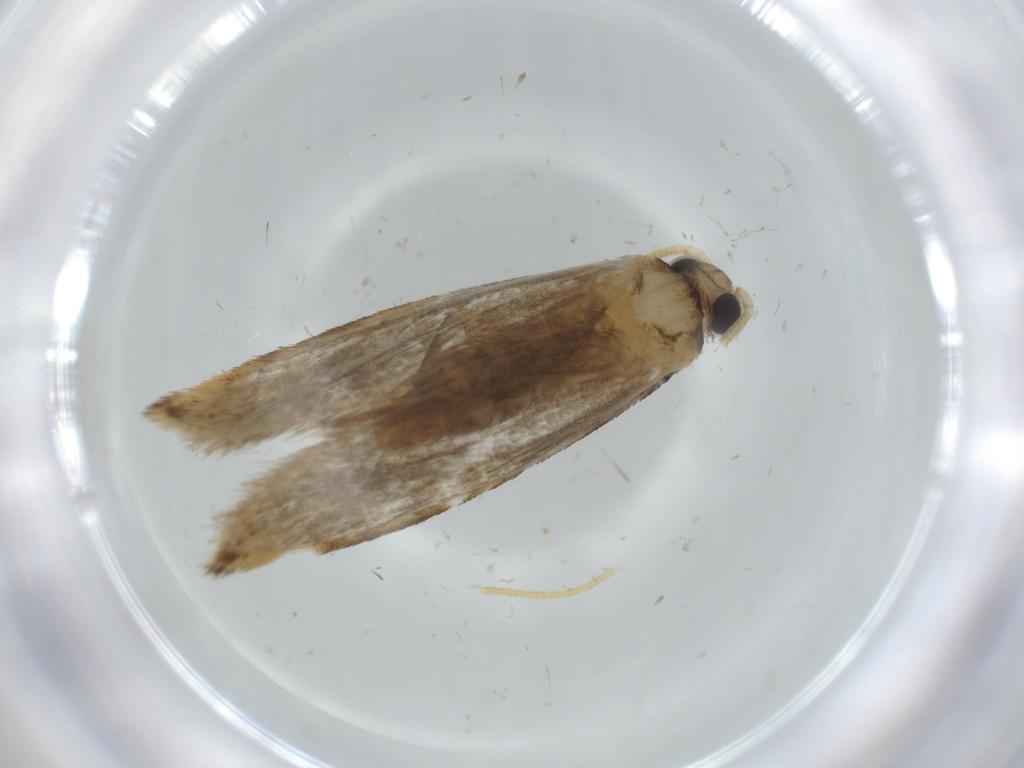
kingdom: Animalia
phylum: Arthropoda
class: Insecta
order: Lepidoptera
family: Tineidae
